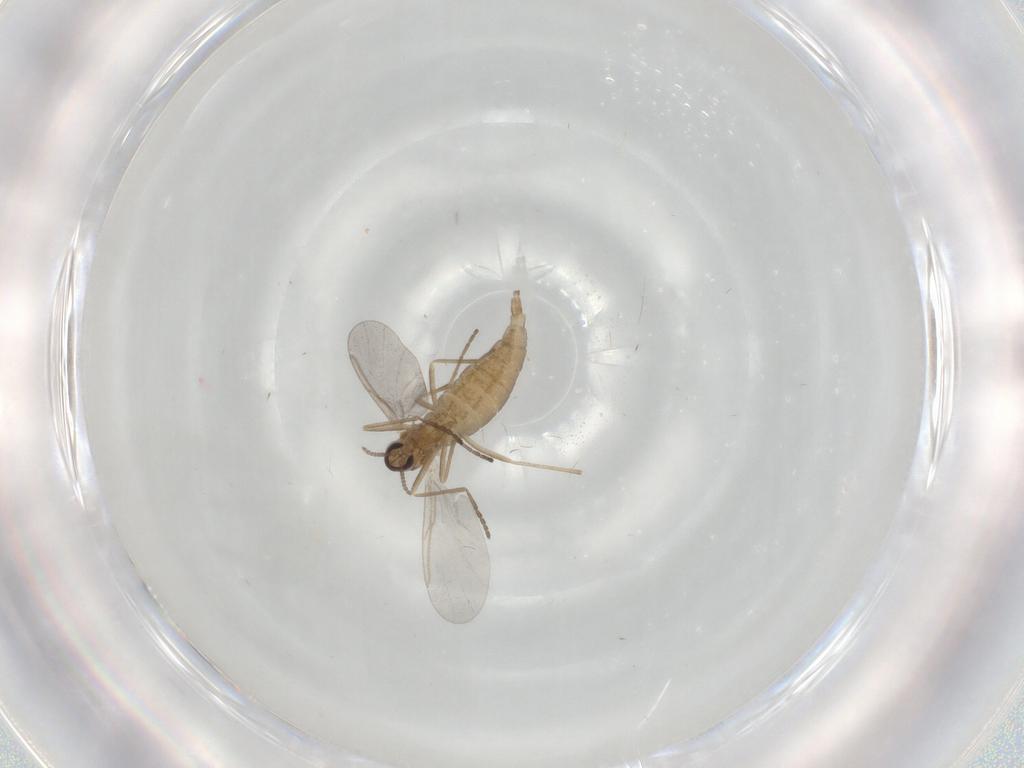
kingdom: Animalia
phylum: Arthropoda
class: Insecta
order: Diptera
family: Cecidomyiidae
